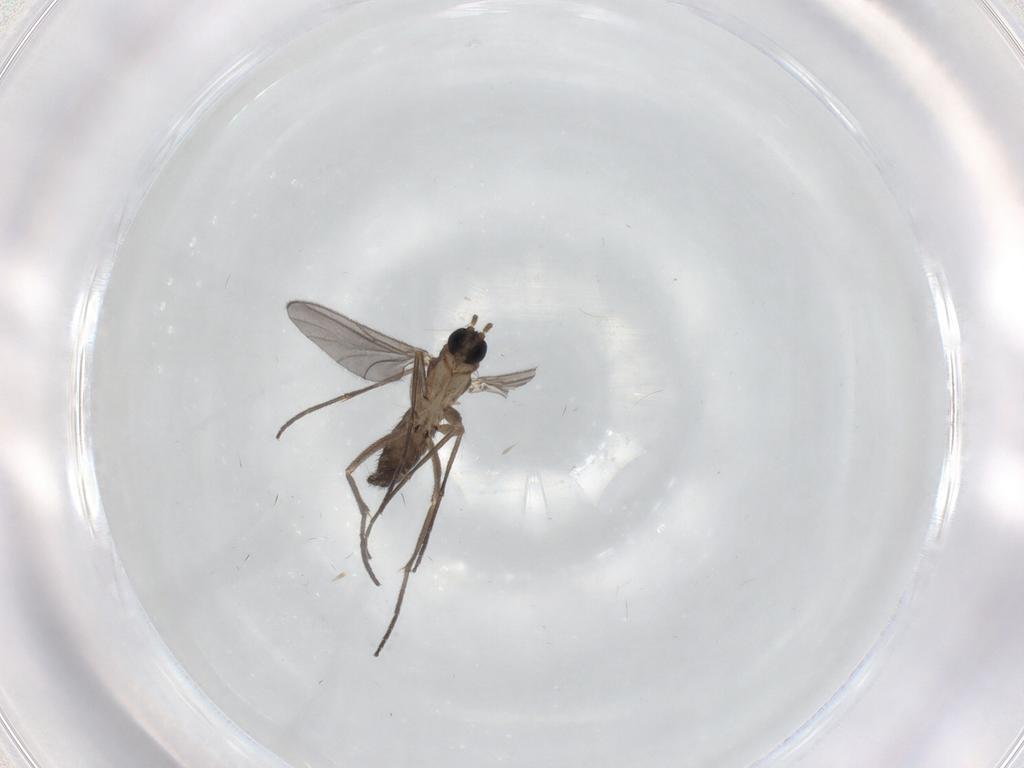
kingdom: Animalia
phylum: Arthropoda
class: Insecta
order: Diptera
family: Sciaridae
